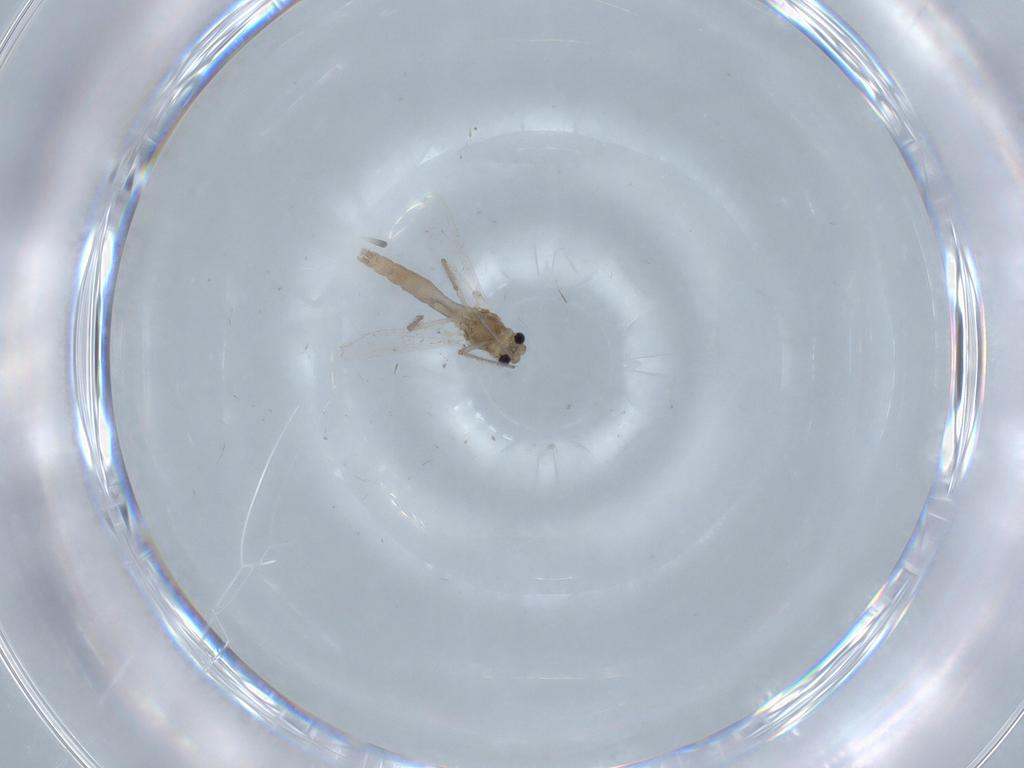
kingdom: Animalia
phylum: Arthropoda
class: Insecta
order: Diptera
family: Chironomidae
